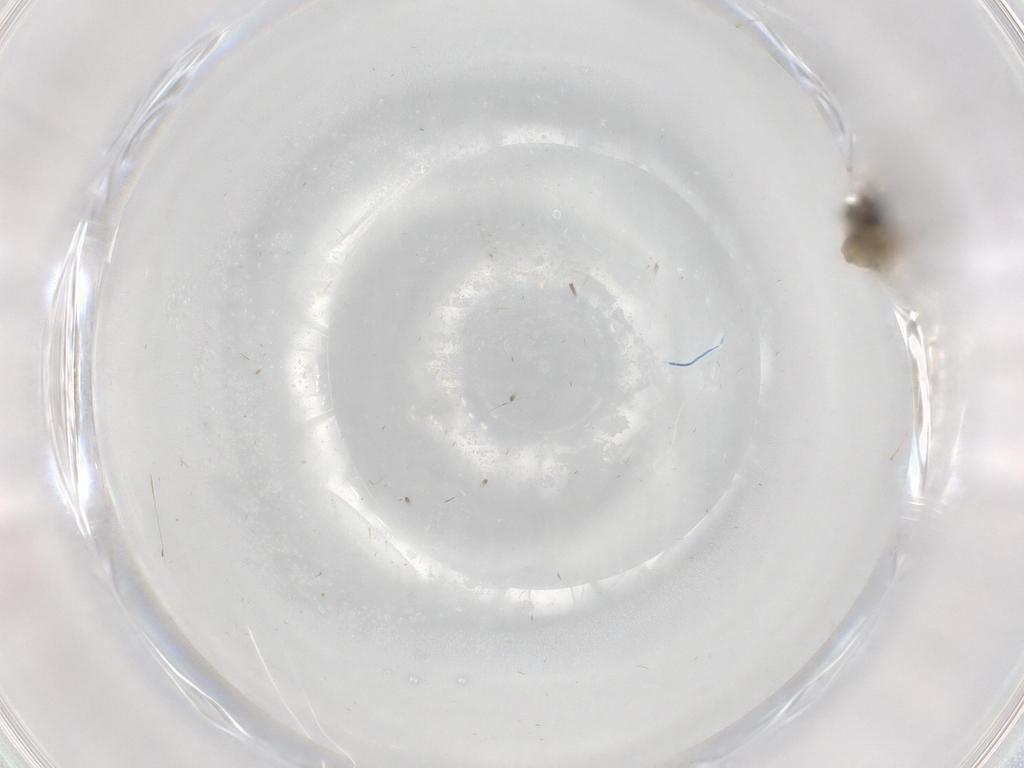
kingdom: Animalia
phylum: Arthropoda
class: Insecta
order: Diptera
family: Cecidomyiidae
